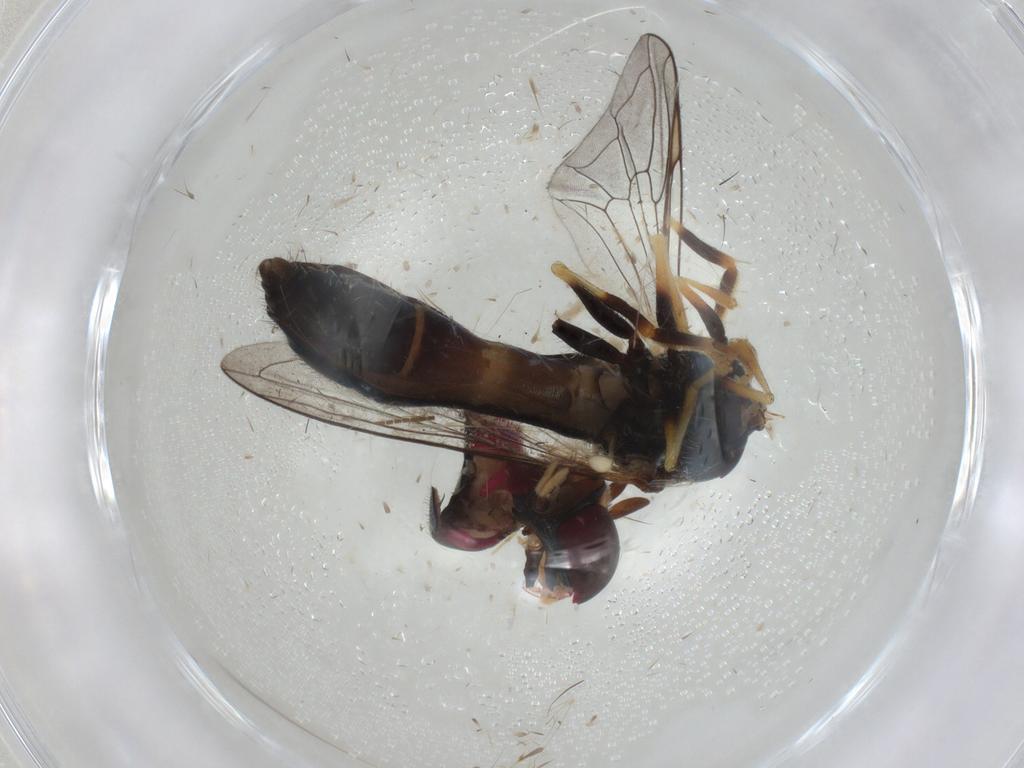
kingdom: Animalia
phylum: Arthropoda
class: Insecta
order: Diptera
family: Syrphidae
